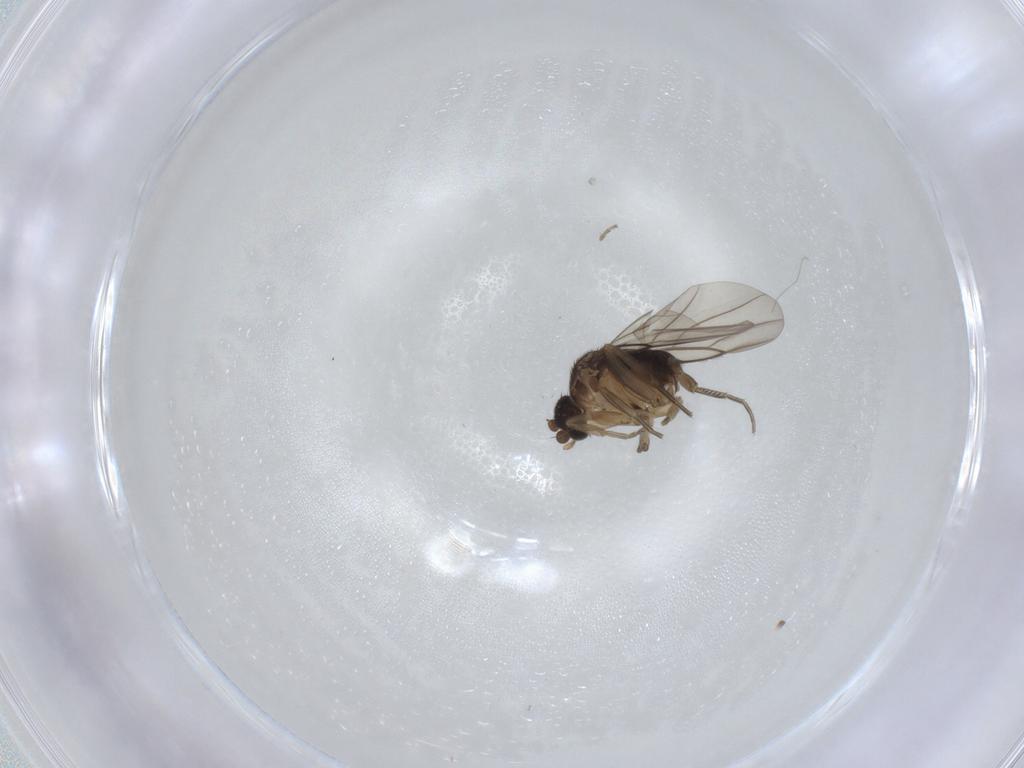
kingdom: Animalia
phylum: Arthropoda
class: Insecta
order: Diptera
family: Phoridae
